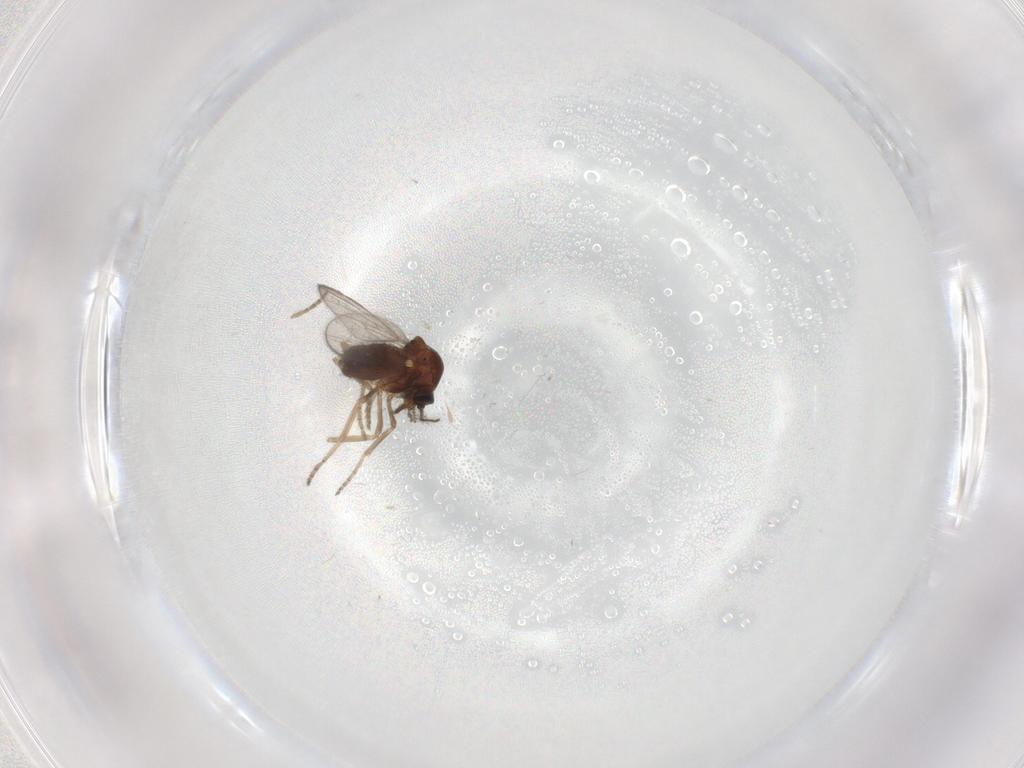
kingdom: Animalia
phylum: Arthropoda
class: Insecta
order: Diptera
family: Ceratopogonidae
